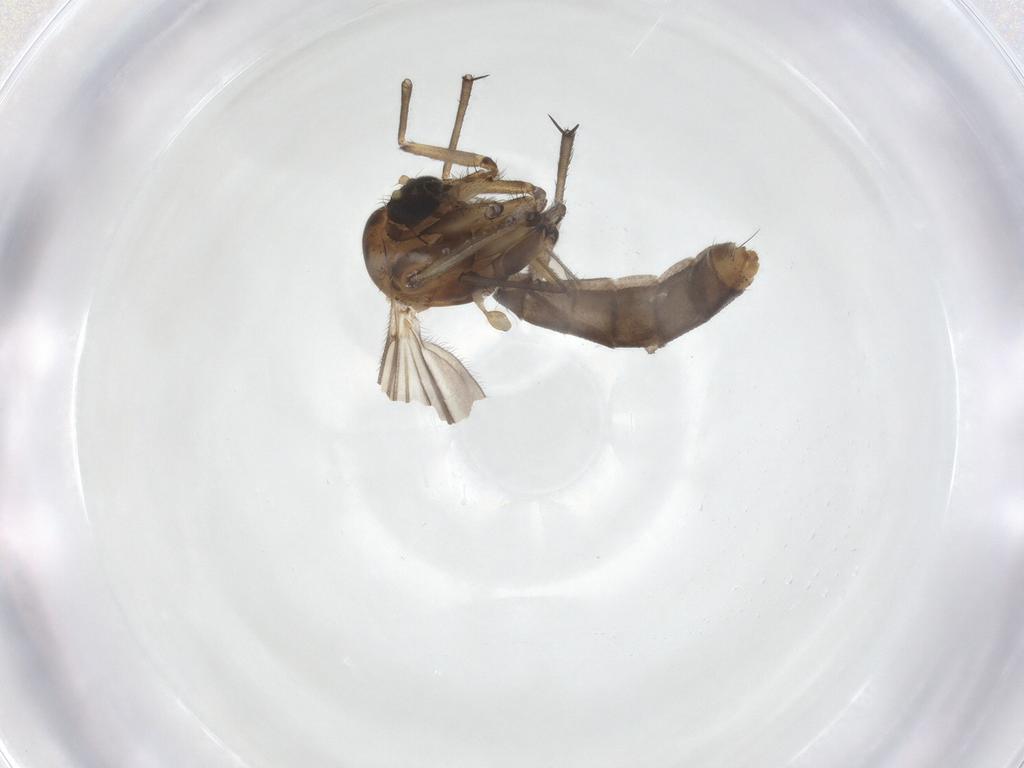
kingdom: Animalia
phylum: Arthropoda
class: Insecta
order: Diptera
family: Mycetophilidae
